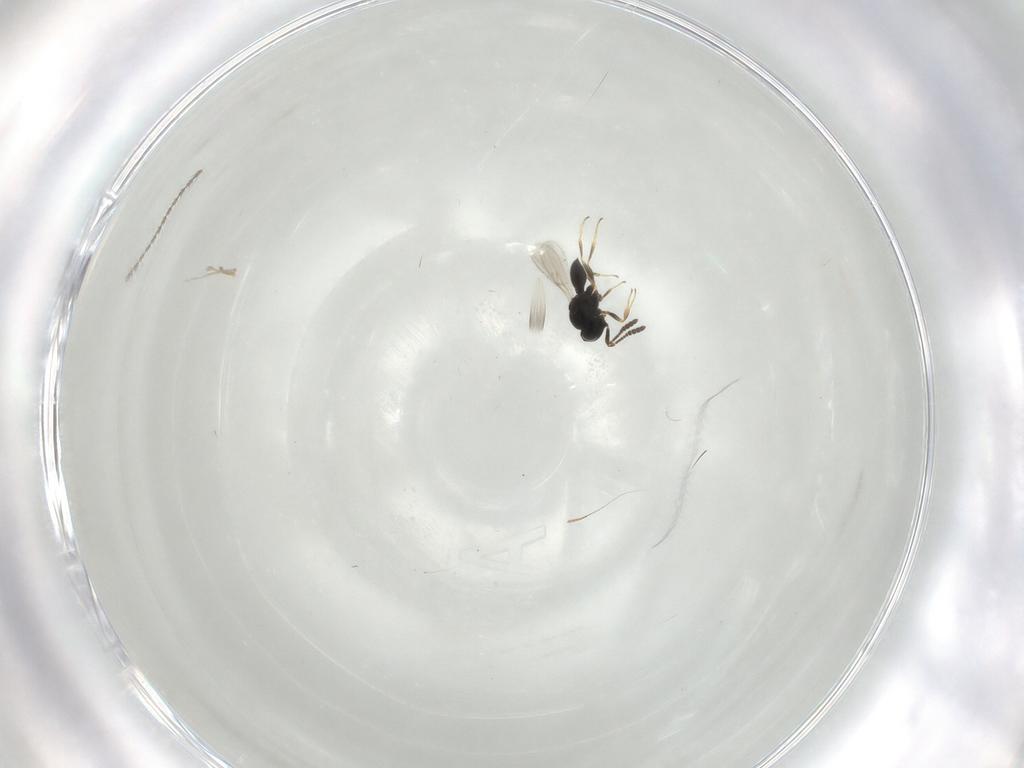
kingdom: Animalia
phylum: Arthropoda
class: Insecta
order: Hymenoptera
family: Scelionidae
